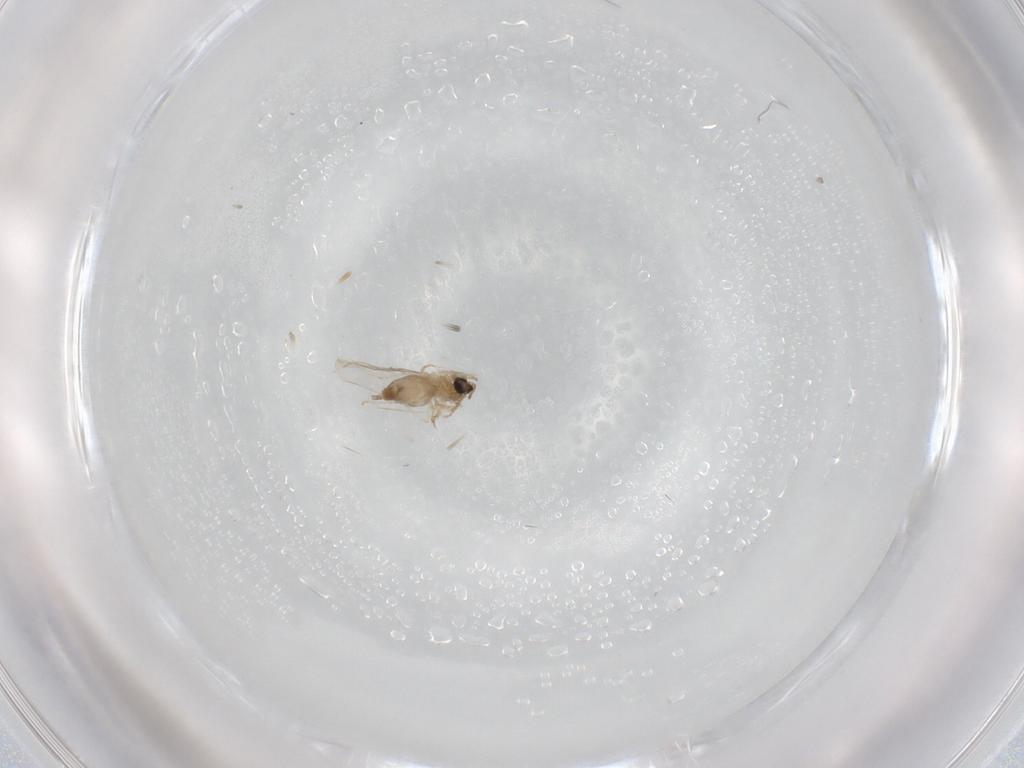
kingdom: Animalia
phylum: Arthropoda
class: Insecta
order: Diptera
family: Cecidomyiidae
